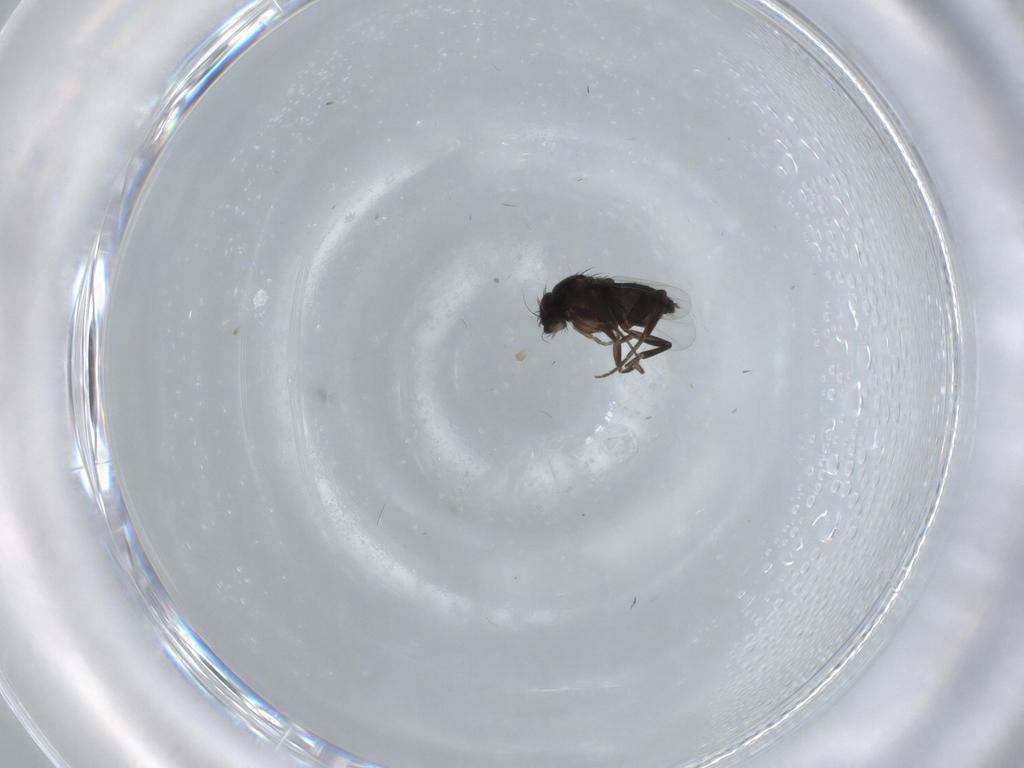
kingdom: Animalia
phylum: Arthropoda
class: Insecta
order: Diptera
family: Phoridae
